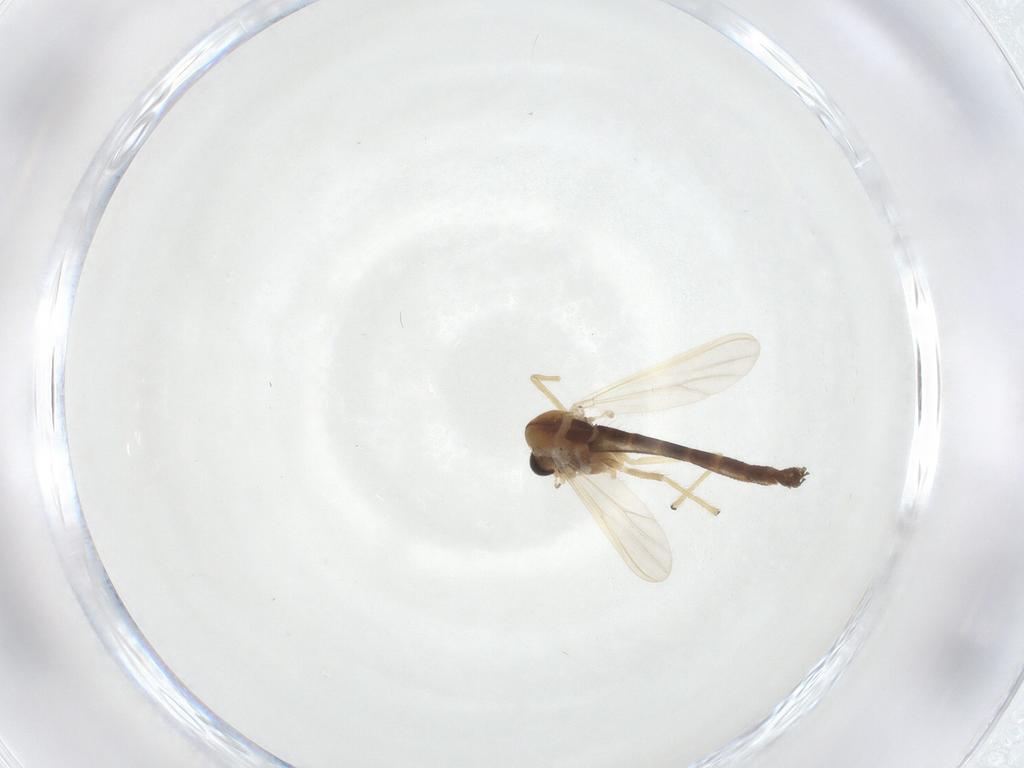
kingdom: Animalia
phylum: Arthropoda
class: Insecta
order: Diptera
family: Chironomidae
